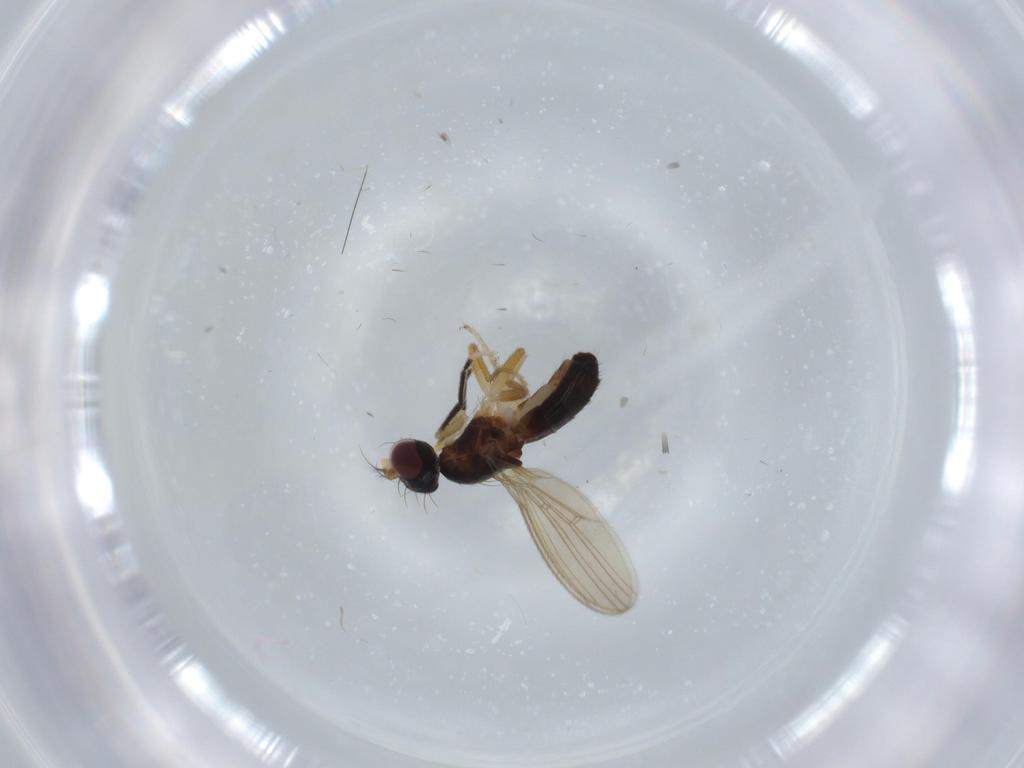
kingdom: Animalia
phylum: Arthropoda
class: Insecta
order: Diptera
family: Anthomyzidae
